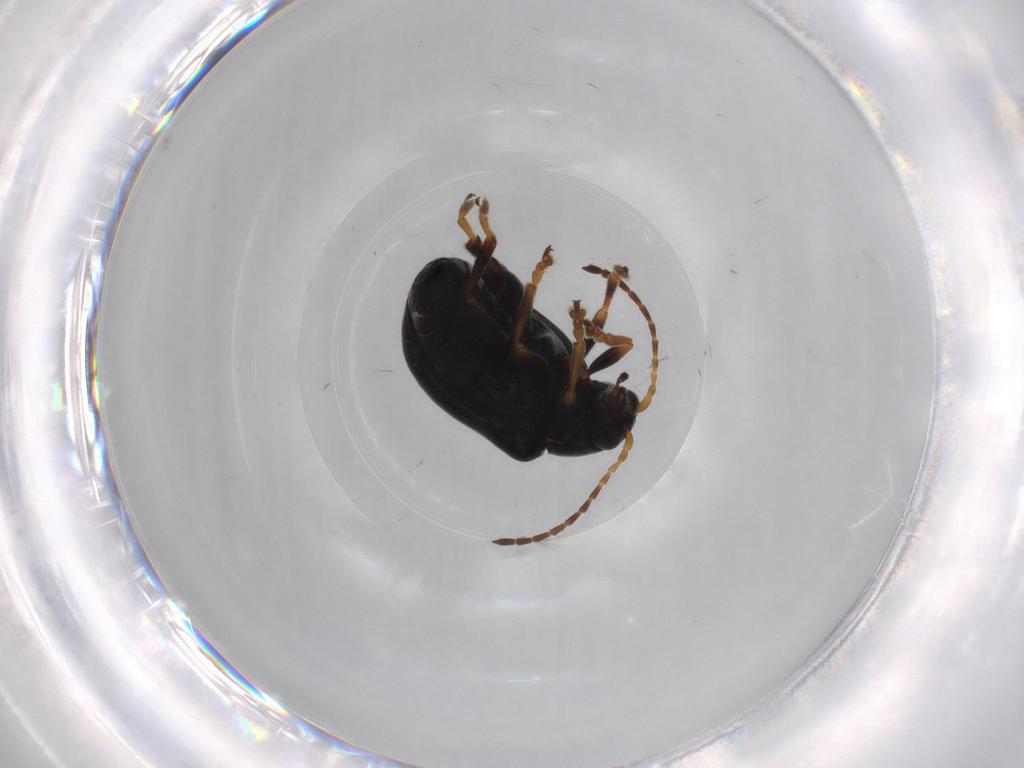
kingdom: Animalia
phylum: Arthropoda
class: Insecta
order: Coleoptera
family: Chrysomelidae
